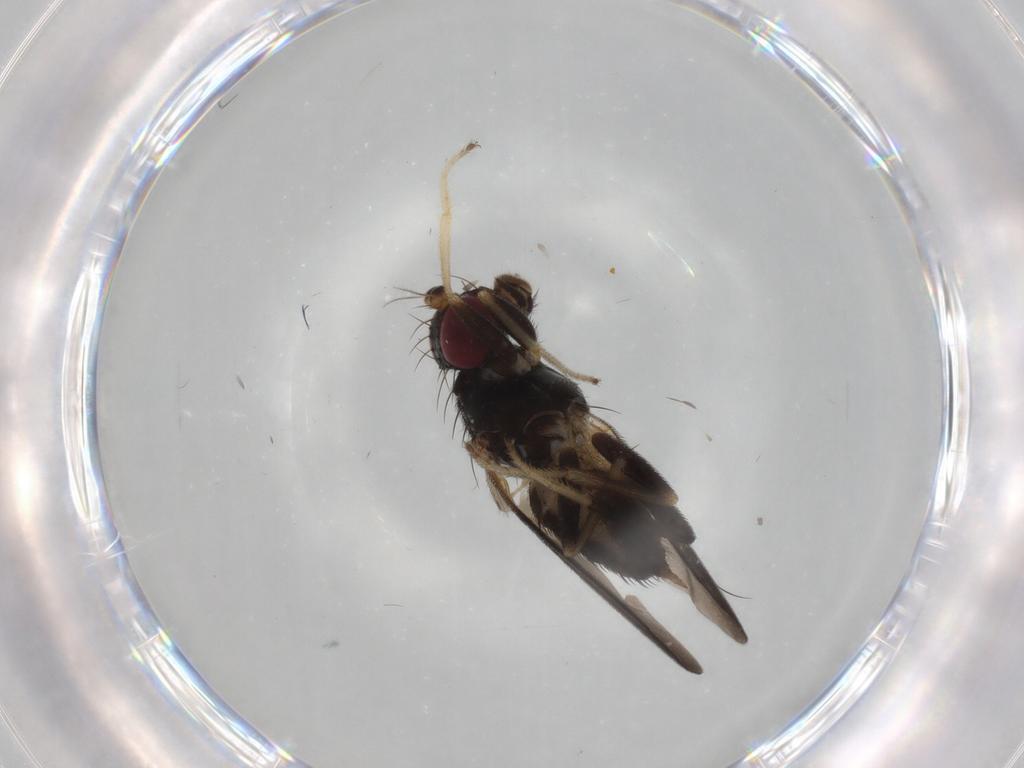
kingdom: Animalia
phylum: Arthropoda
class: Insecta
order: Diptera
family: Clusiidae
